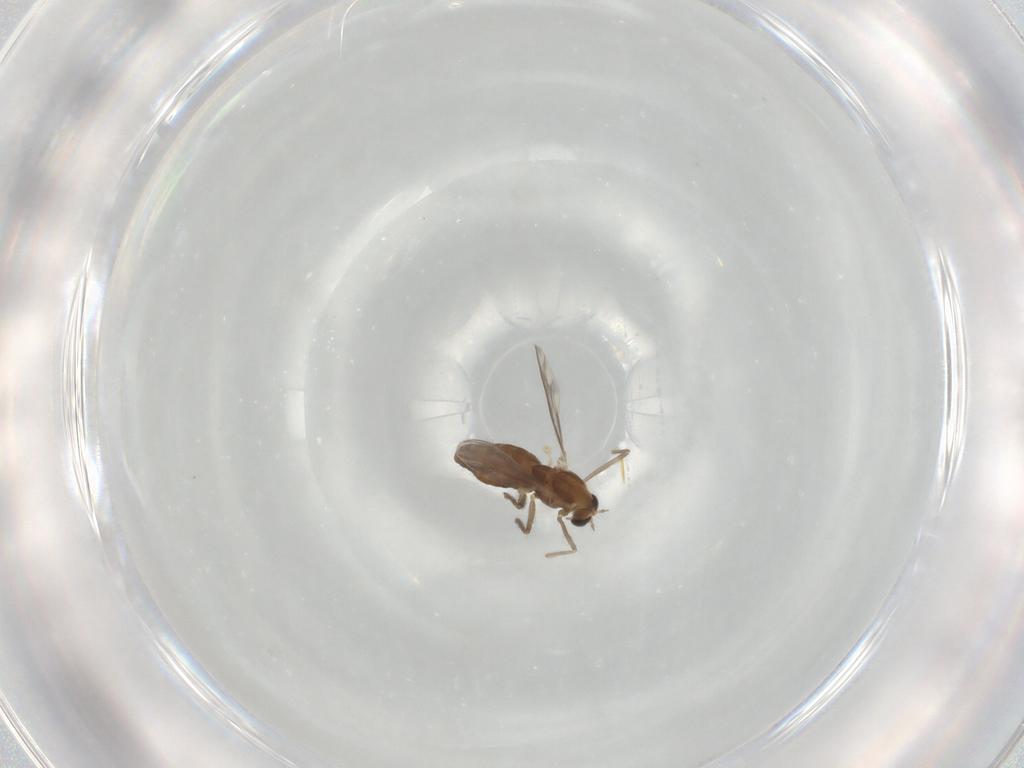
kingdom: Animalia
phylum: Arthropoda
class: Insecta
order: Diptera
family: Chironomidae
